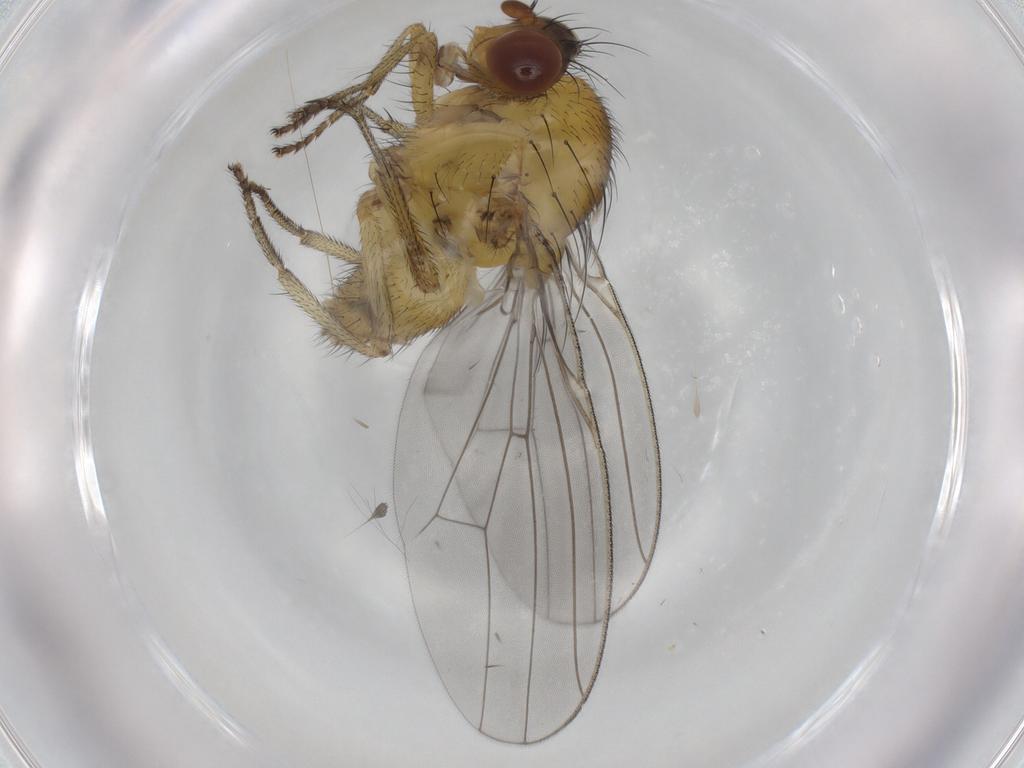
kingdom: Animalia
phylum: Arthropoda
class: Insecta
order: Diptera
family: Lauxaniidae
